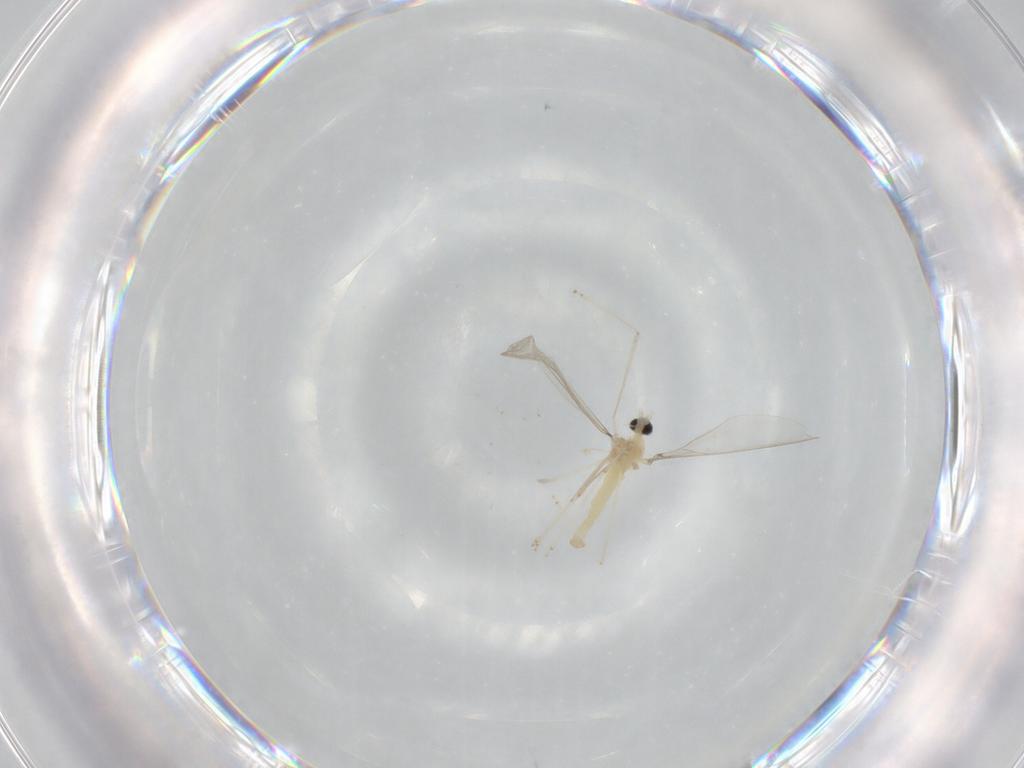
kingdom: Animalia
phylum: Arthropoda
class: Insecta
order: Diptera
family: Cecidomyiidae
